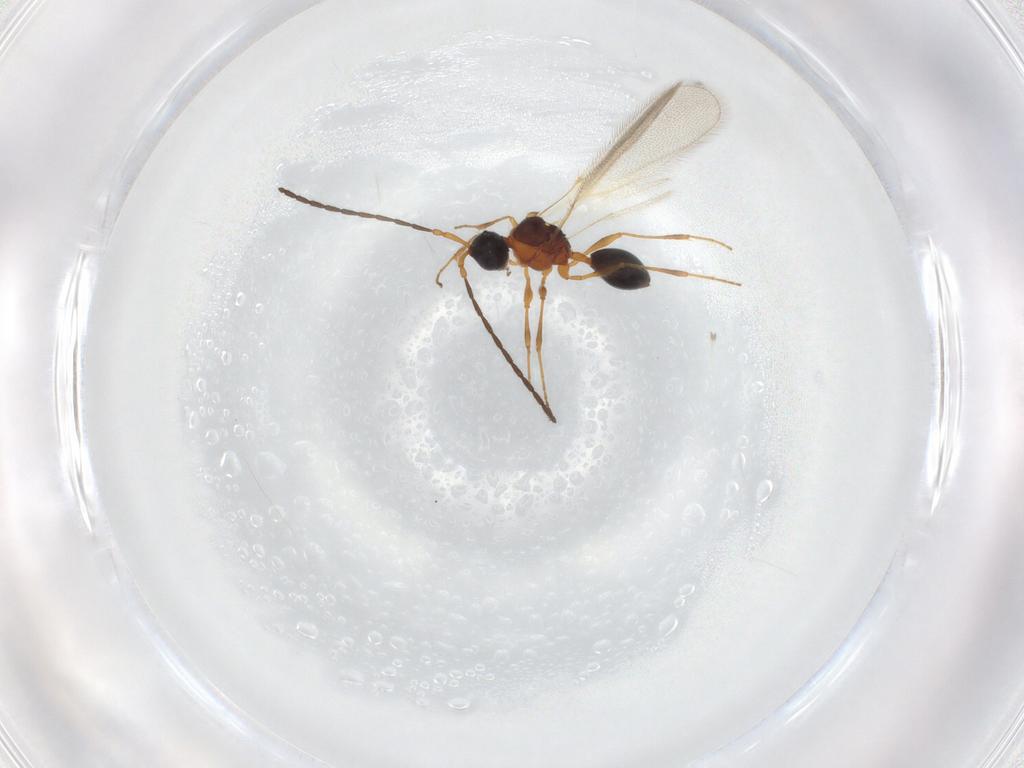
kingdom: Animalia
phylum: Arthropoda
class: Insecta
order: Hymenoptera
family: Diapriidae
